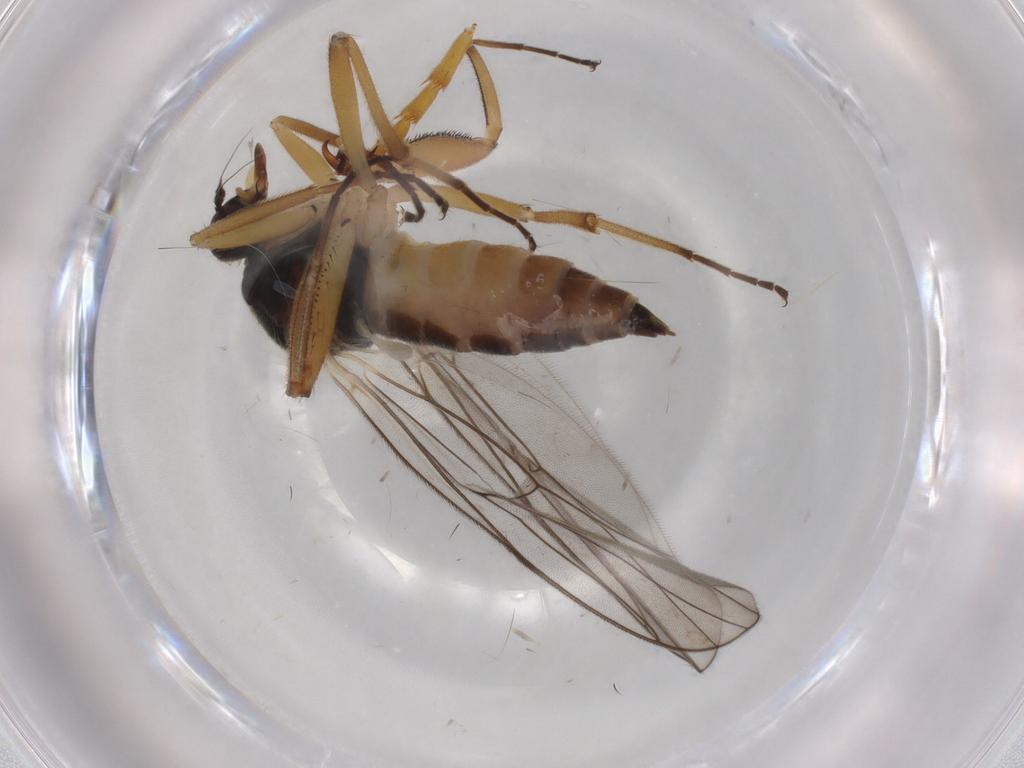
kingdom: Animalia
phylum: Arthropoda
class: Insecta
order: Diptera
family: Hybotidae
